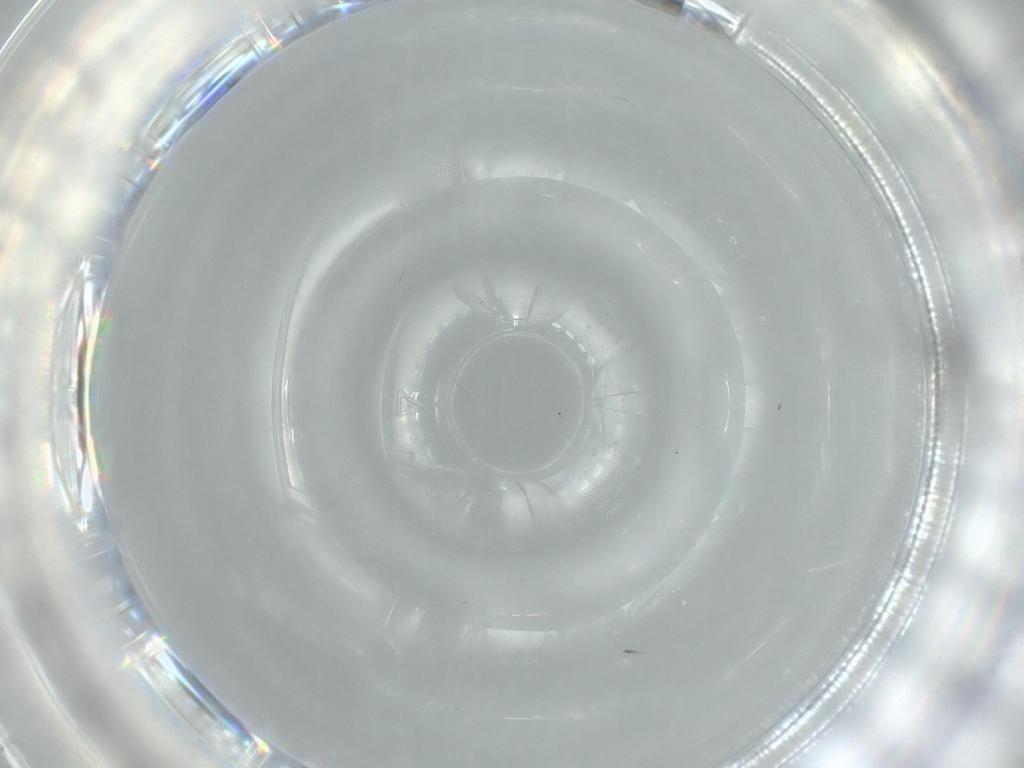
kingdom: Animalia
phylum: Arthropoda
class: Insecta
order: Diptera
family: Cecidomyiidae
